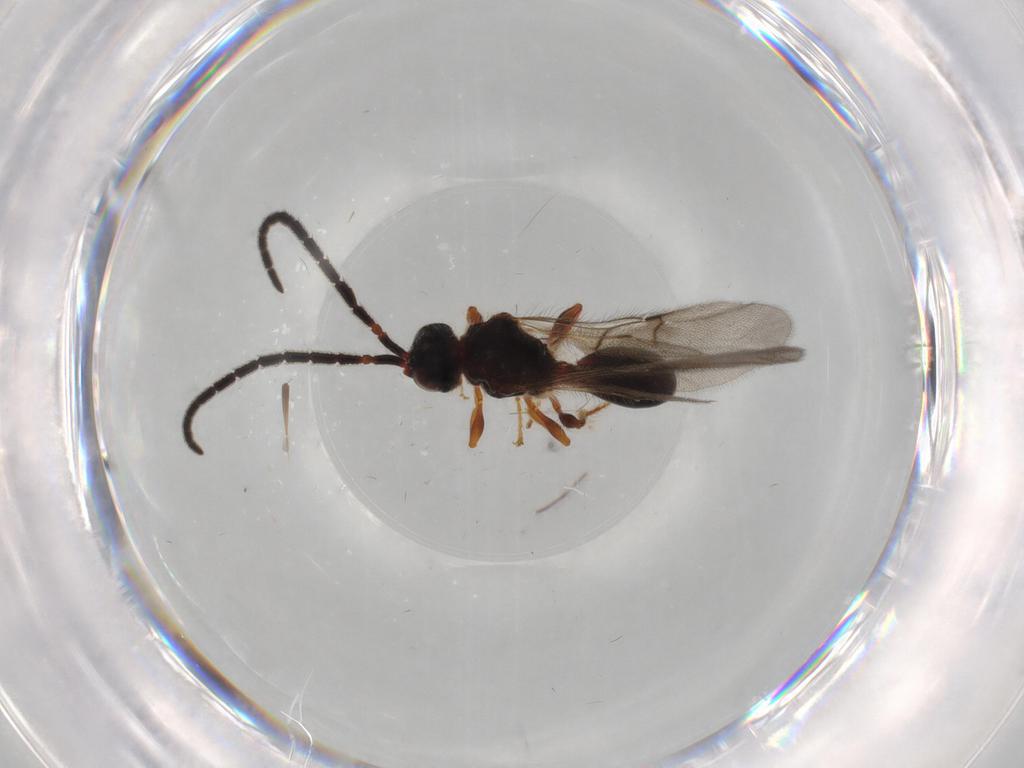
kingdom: Animalia
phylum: Arthropoda
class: Insecta
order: Hymenoptera
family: Diapriidae
